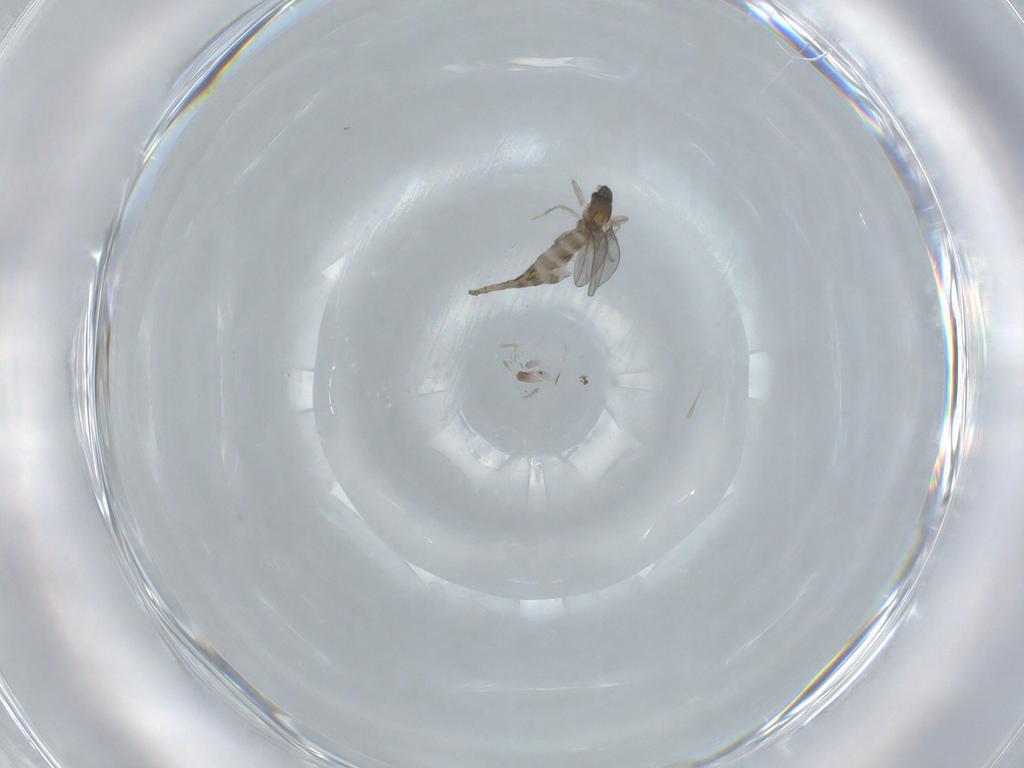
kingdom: Animalia
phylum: Arthropoda
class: Insecta
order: Diptera
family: Cecidomyiidae
